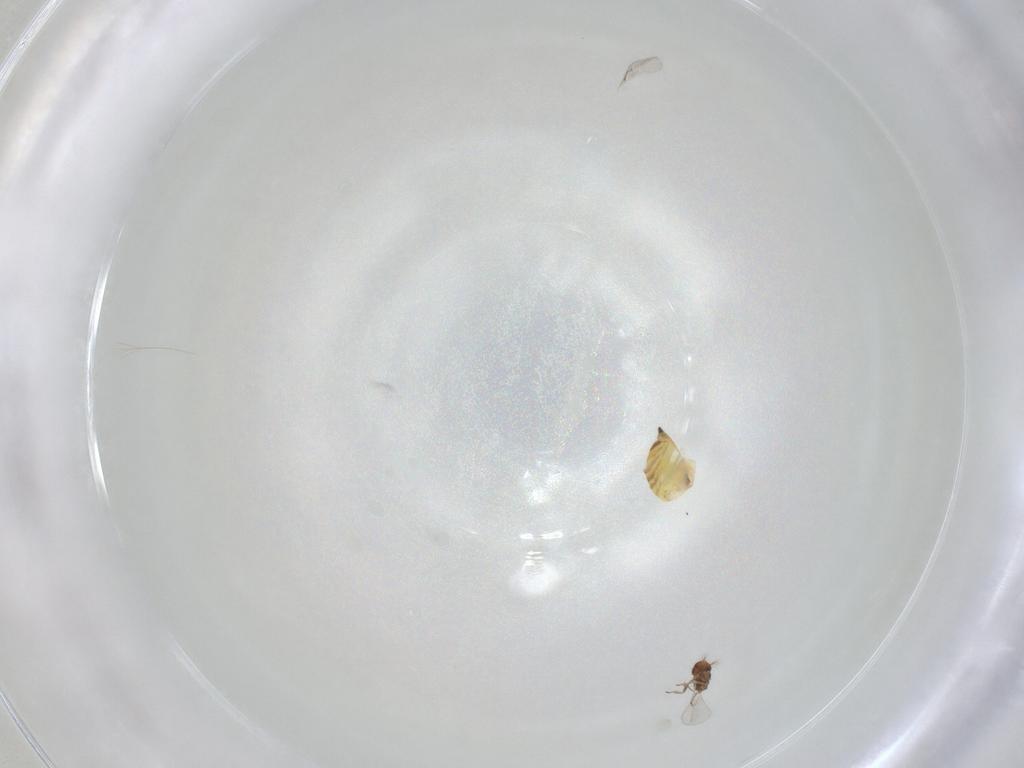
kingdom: Animalia
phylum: Arthropoda
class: Insecta
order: Hymenoptera
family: Eulophidae
